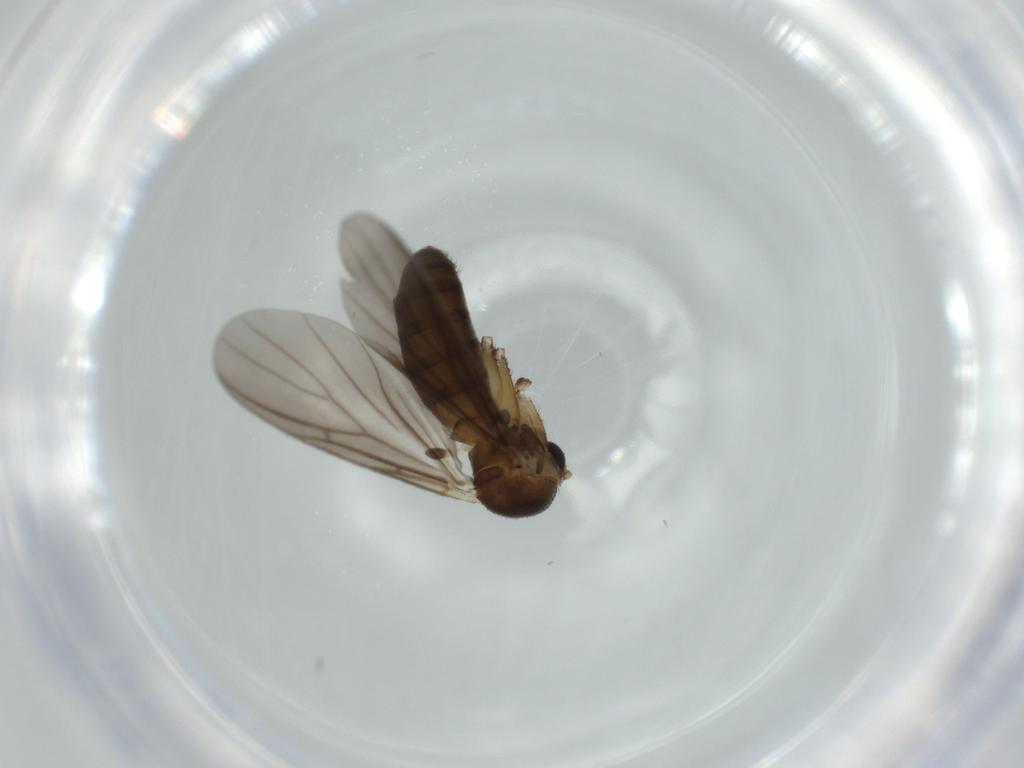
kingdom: Animalia
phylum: Arthropoda
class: Insecta
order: Diptera
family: Mycetophilidae
